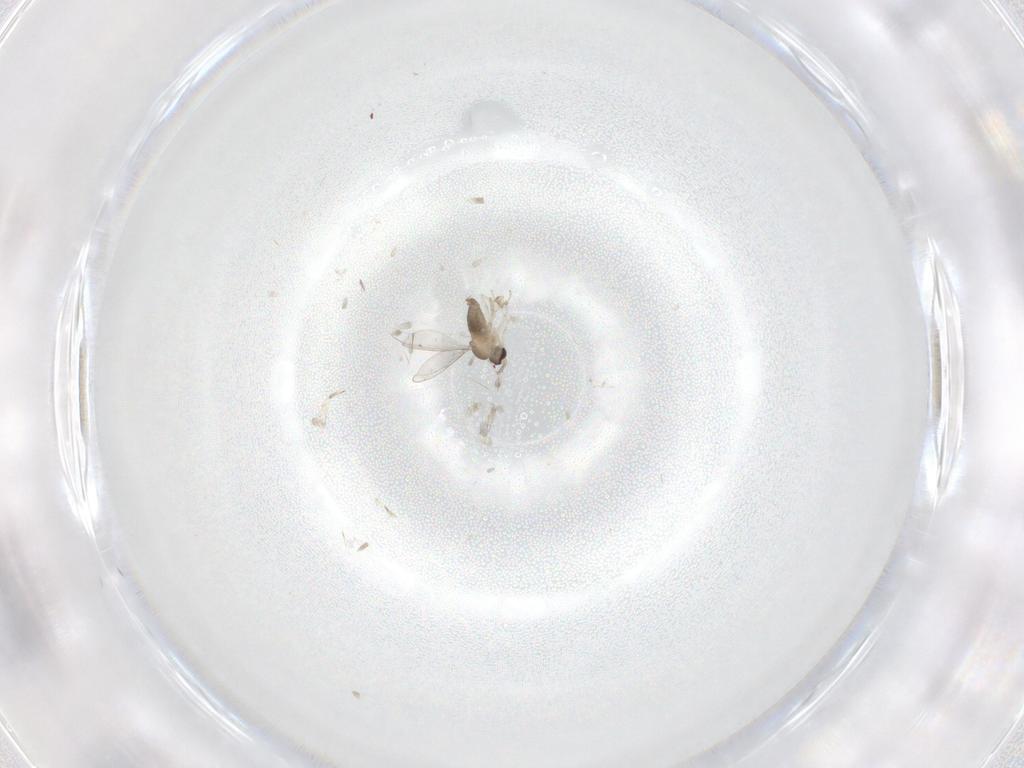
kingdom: Animalia
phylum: Arthropoda
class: Insecta
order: Diptera
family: Cecidomyiidae
